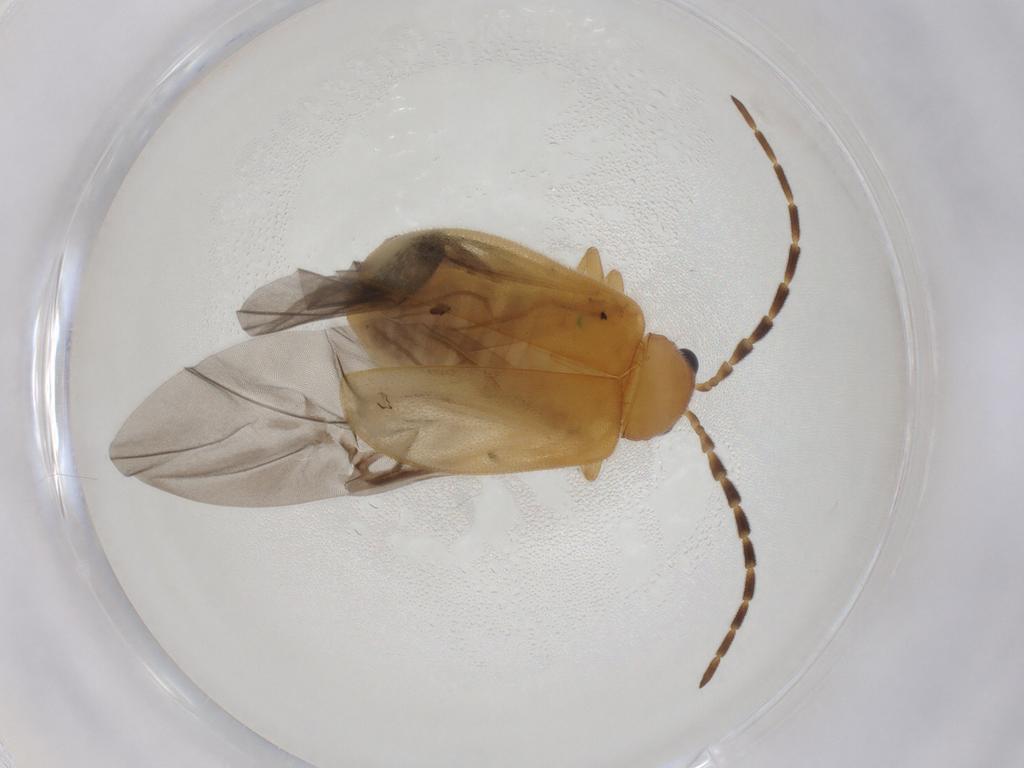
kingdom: Animalia
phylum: Arthropoda
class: Insecta
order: Coleoptera
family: Chrysomelidae
